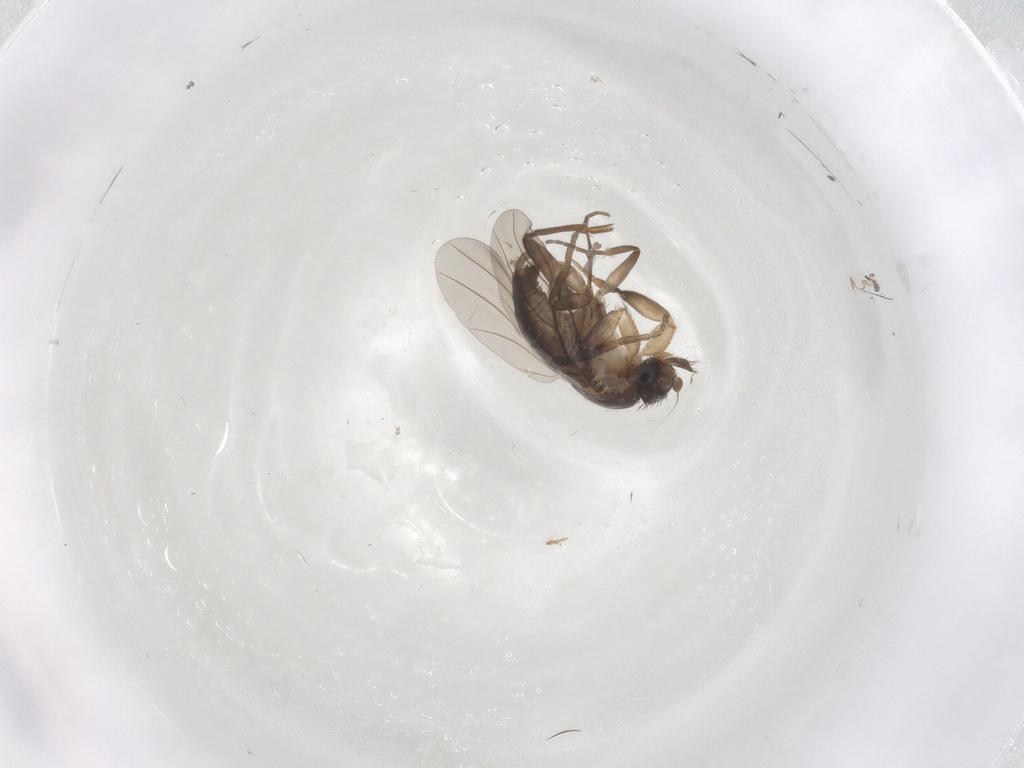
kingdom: Animalia
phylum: Arthropoda
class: Insecta
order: Diptera
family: Phoridae
